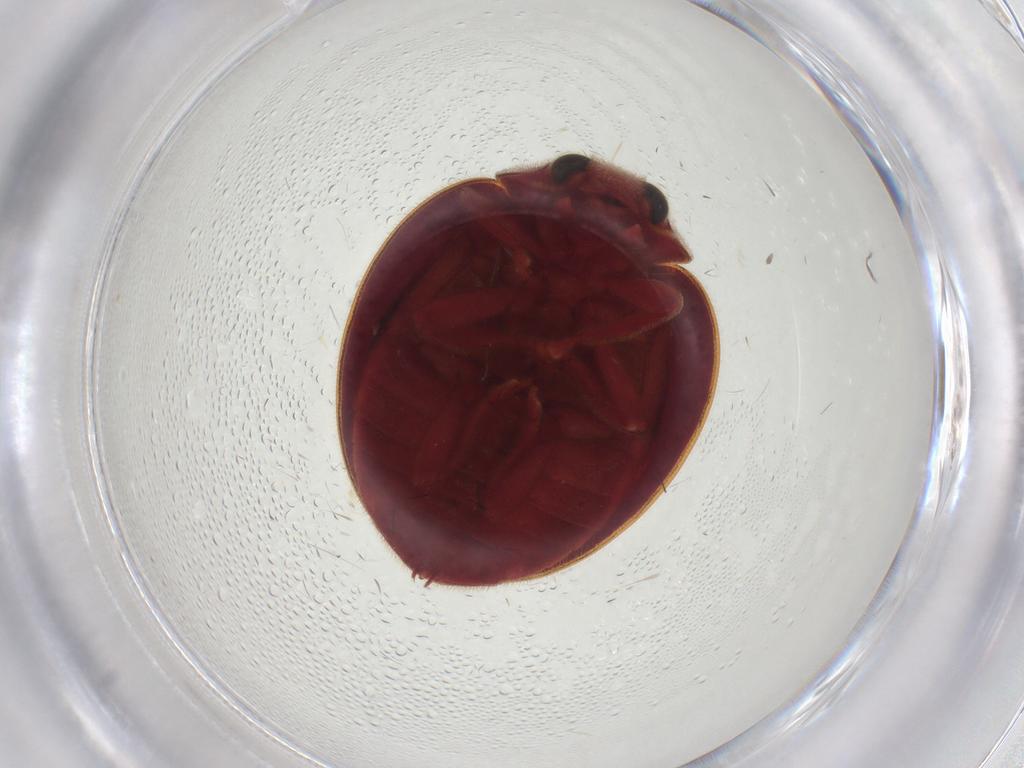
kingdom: Animalia
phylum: Arthropoda
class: Insecta
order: Coleoptera
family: Coccinellidae
